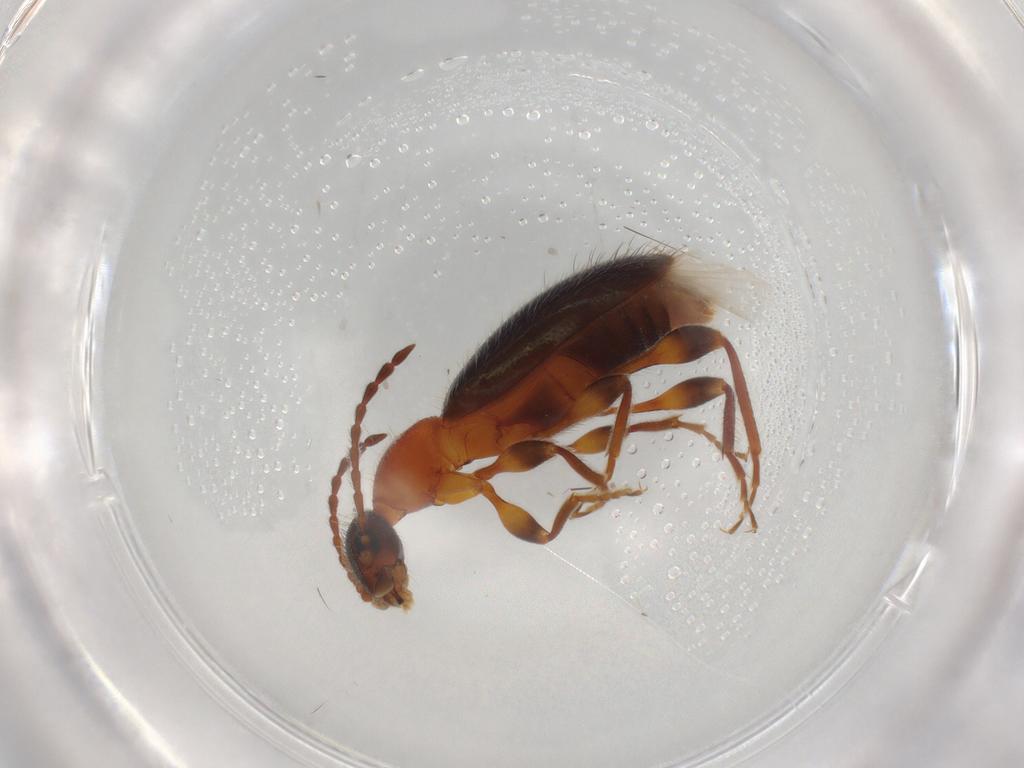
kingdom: Animalia
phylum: Arthropoda
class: Insecta
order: Coleoptera
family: Anthicidae
